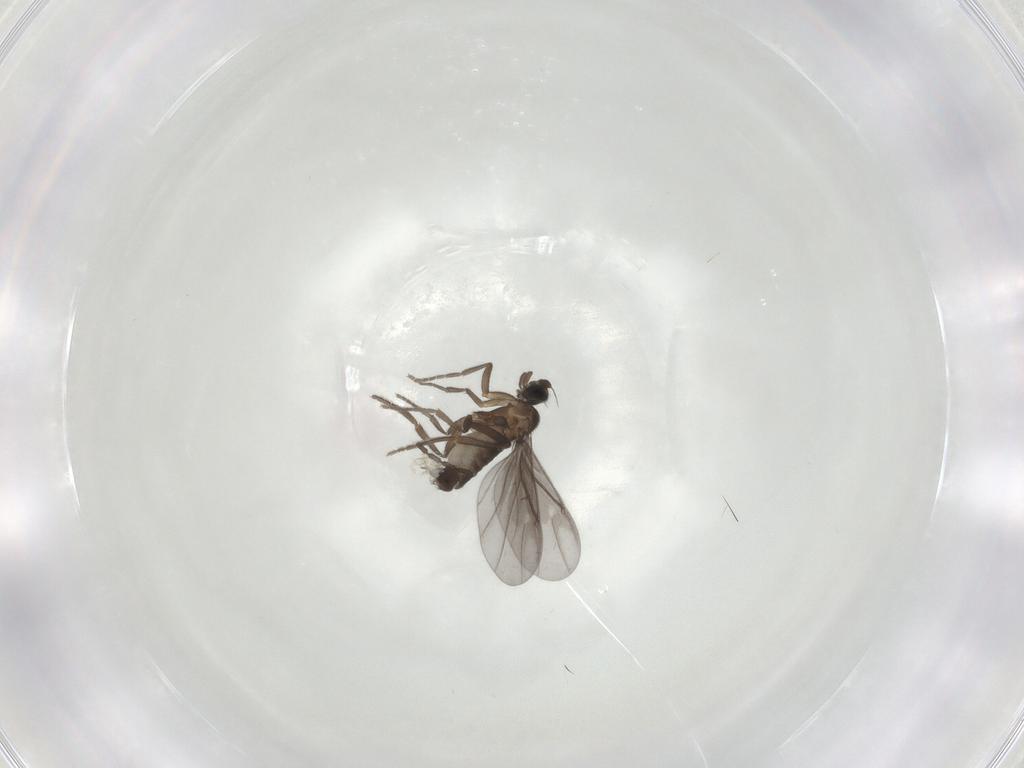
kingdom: Animalia
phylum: Arthropoda
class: Insecta
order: Diptera
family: Phoridae
